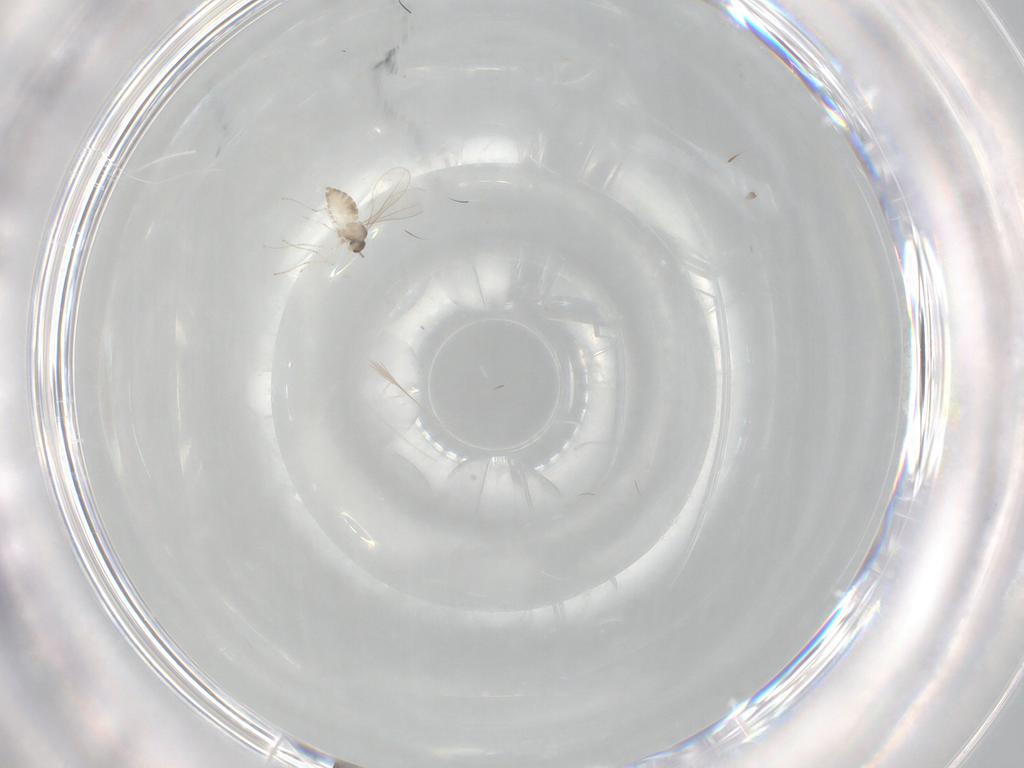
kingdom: Animalia
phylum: Arthropoda
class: Insecta
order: Diptera
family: Cecidomyiidae
